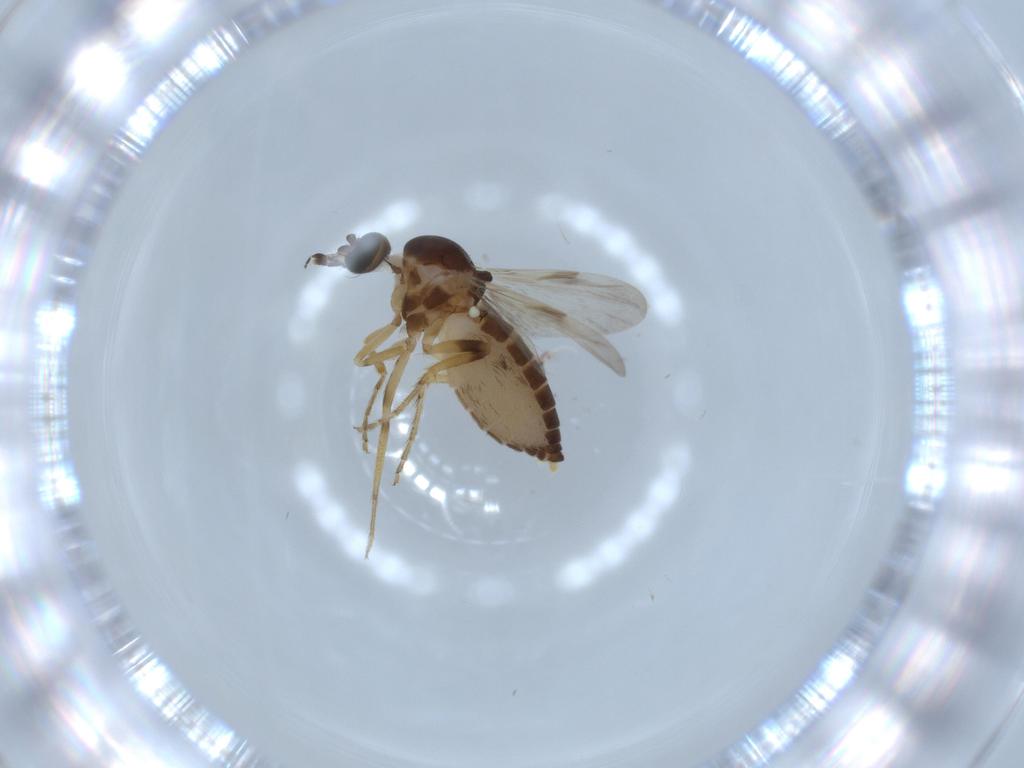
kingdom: Animalia
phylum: Arthropoda
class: Insecta
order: Diptera
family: Ceratopogonidae
